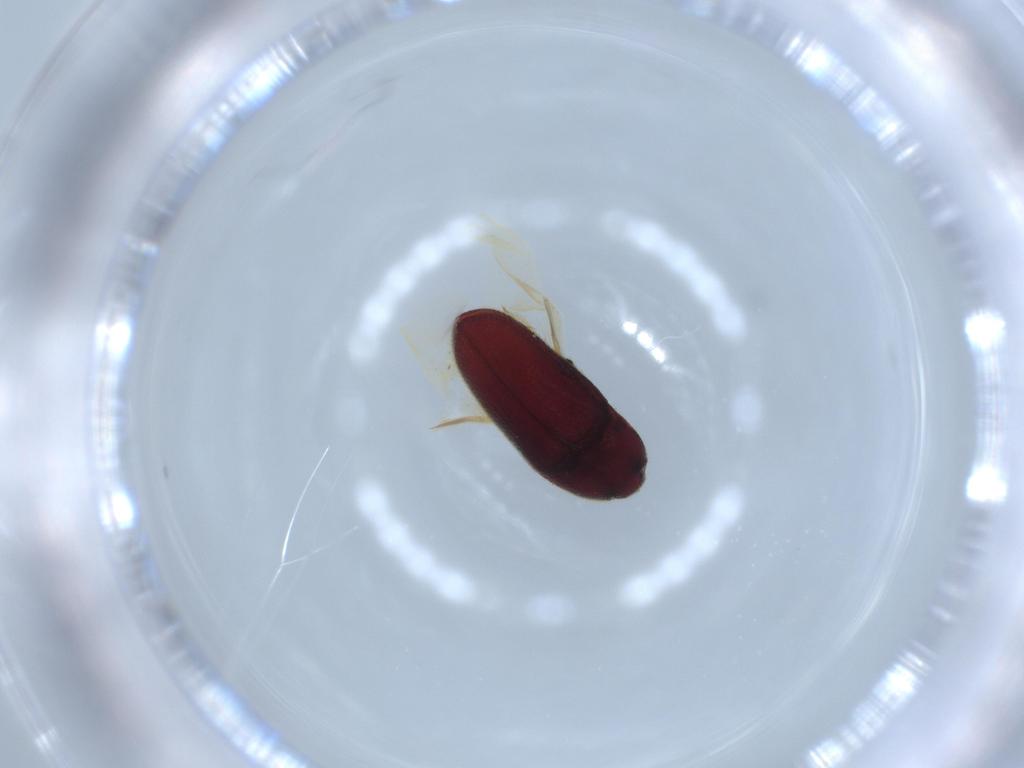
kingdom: Animalia
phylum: Arthropoda
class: Insecta
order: Coleoptera
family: Throscidae
